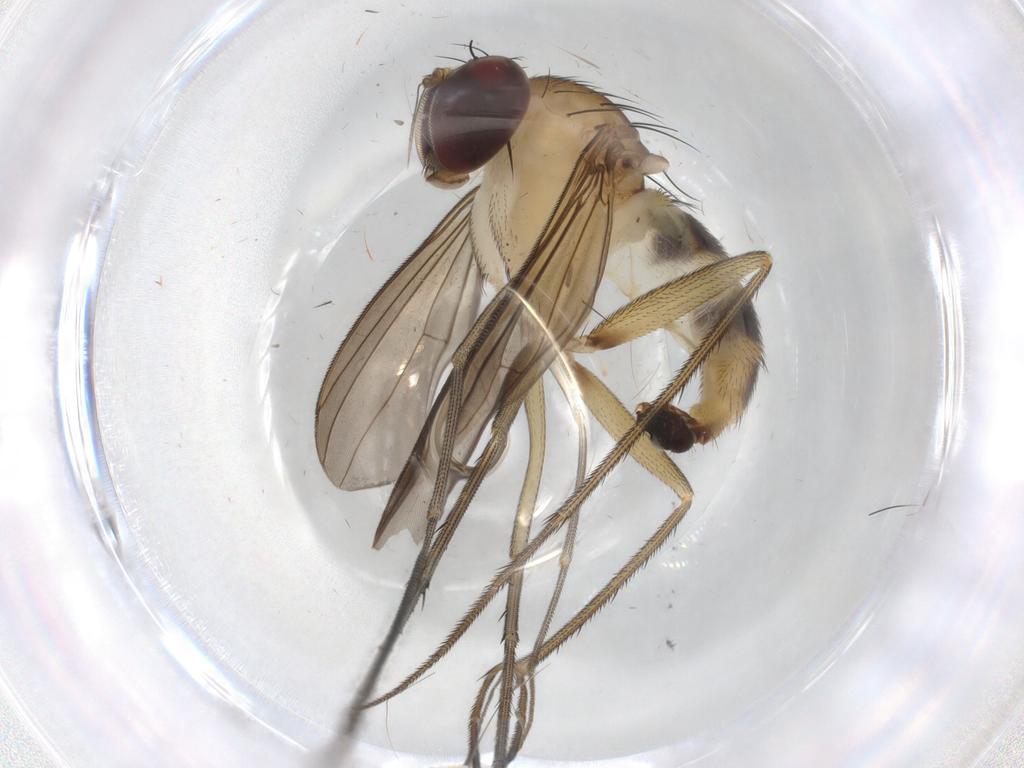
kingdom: Animalia
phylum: Arthropoda
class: Insecta
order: Diptera
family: Dolichopodidae
